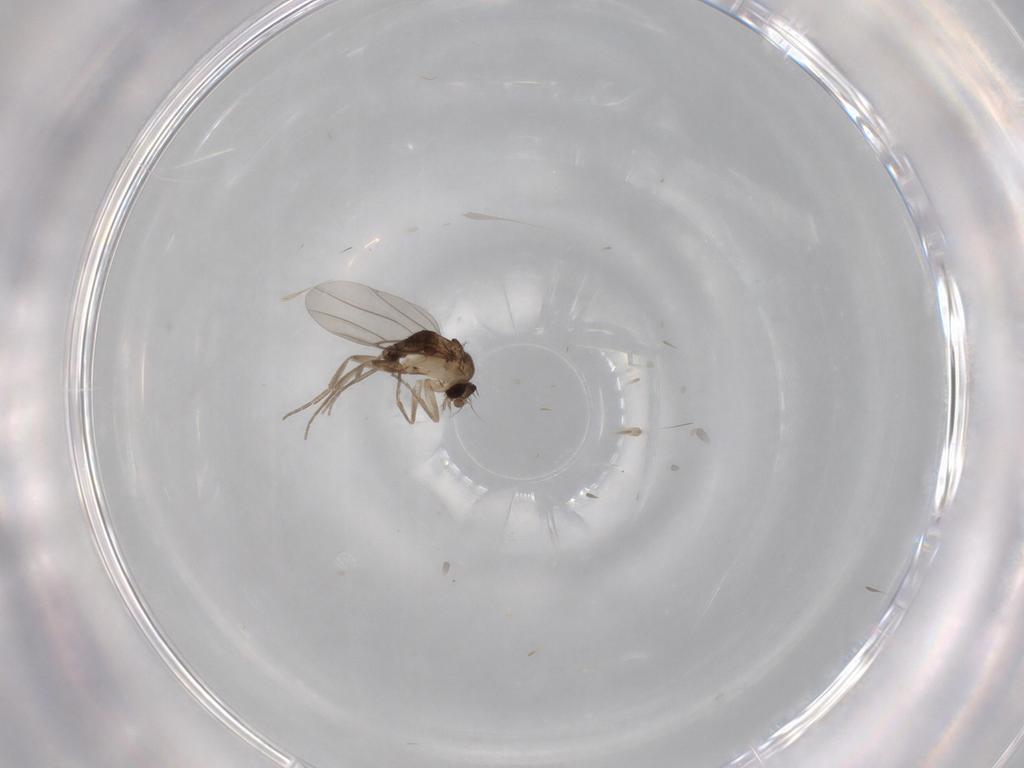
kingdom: Animalia
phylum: Arthropoda
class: Insecta
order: Diptera
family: Phoridae
